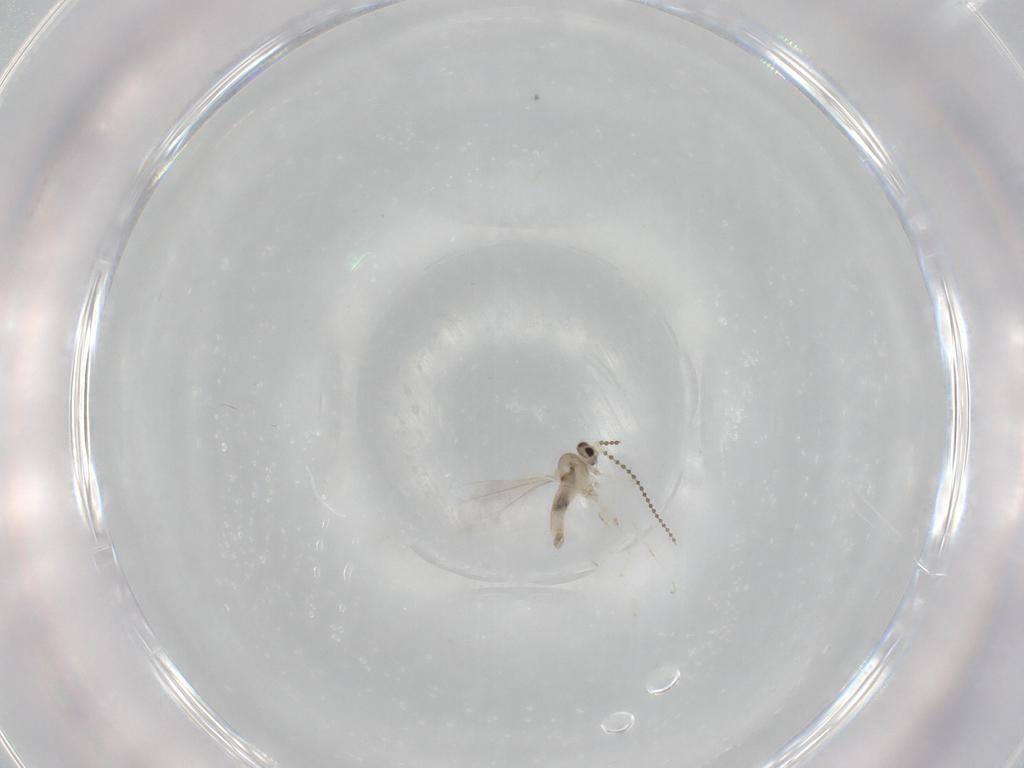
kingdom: Animalia
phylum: Arthropoda
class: Insecta
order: Diptera
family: Cecidomyiidae
